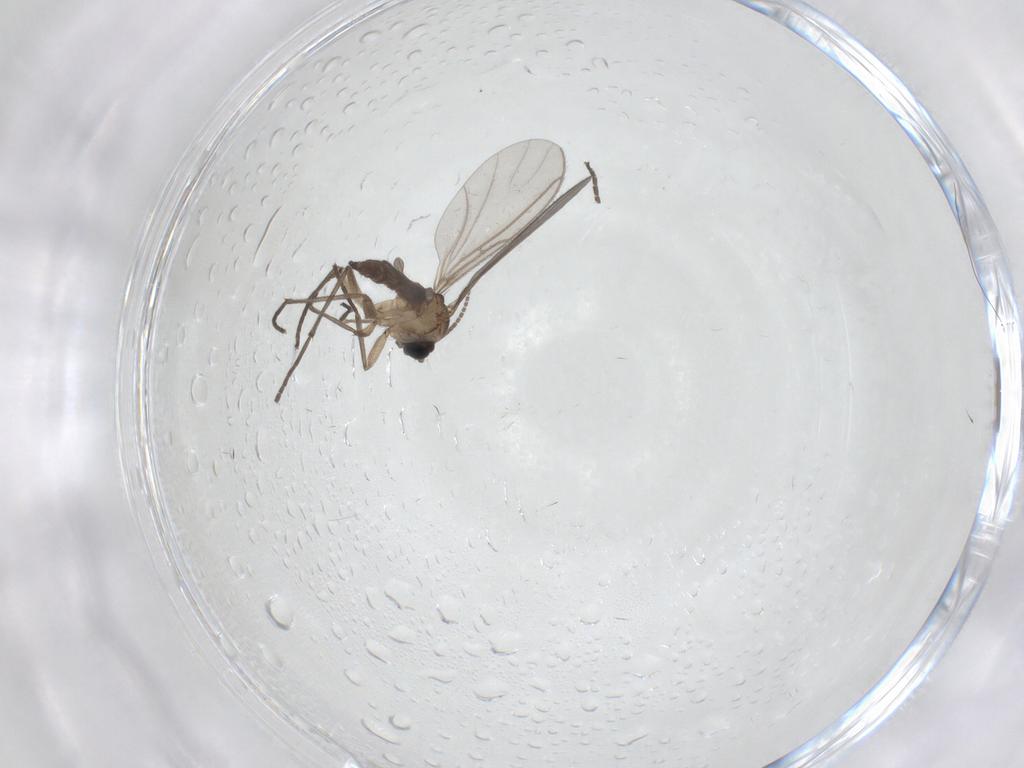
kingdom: Animalia
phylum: Arthropoda
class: Insecta
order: Diptera
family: Sciaridae
